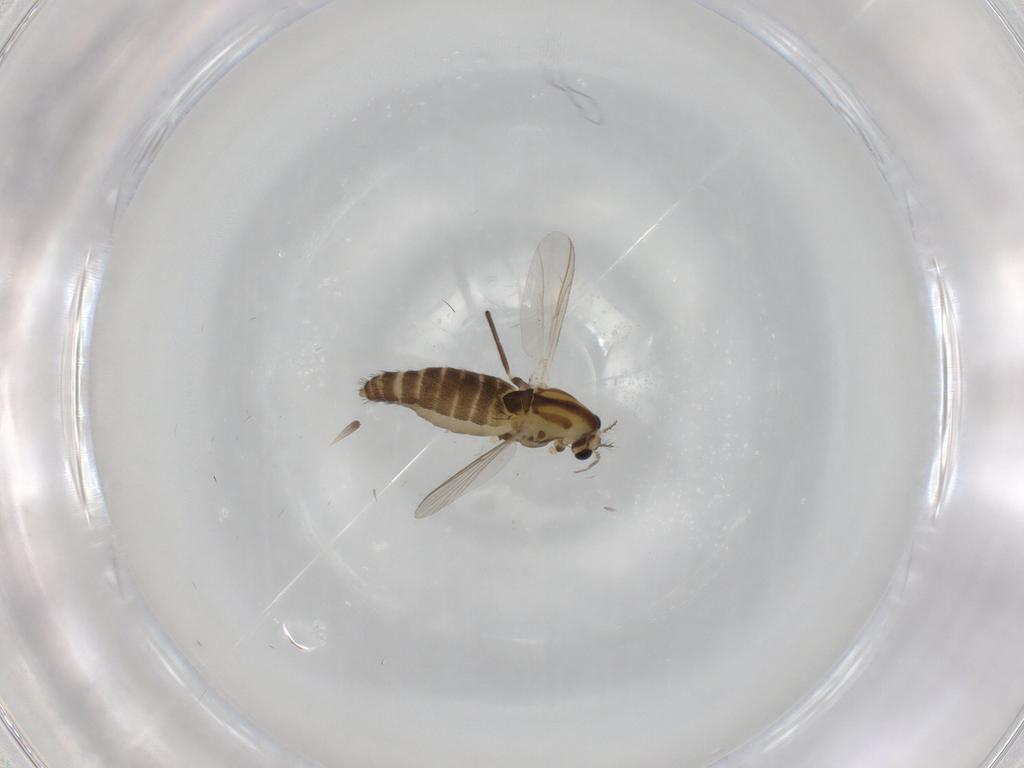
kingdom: Animalia
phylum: Arthropoda
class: Insecta
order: Diptera
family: Chironomidae
